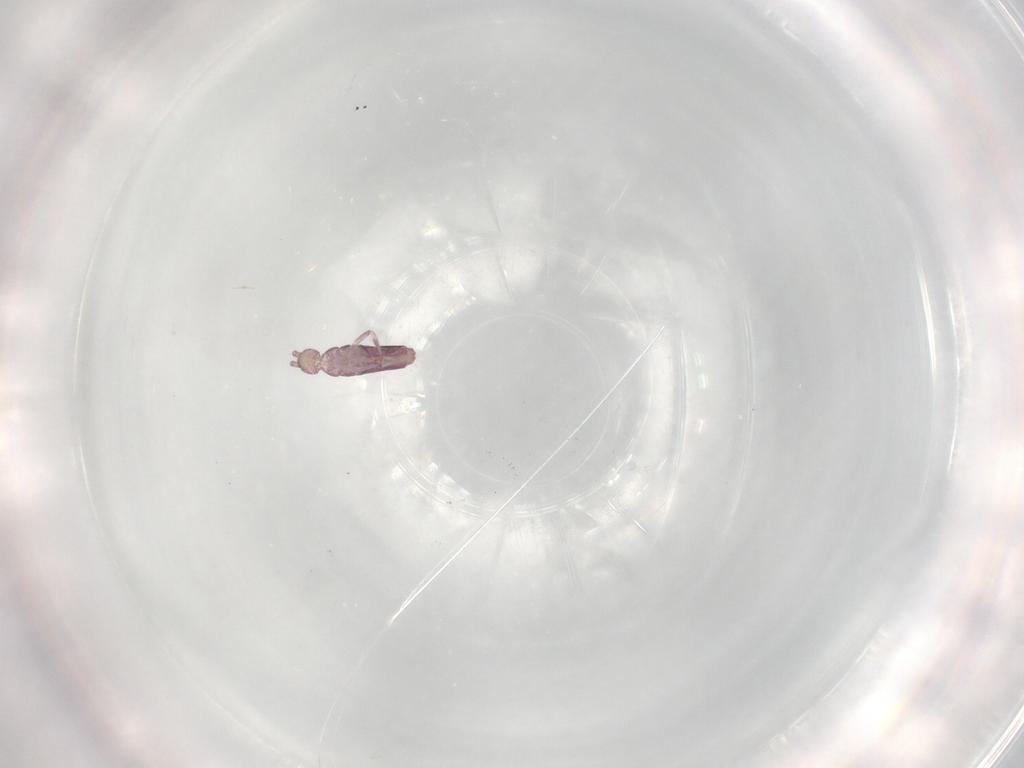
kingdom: Animalia
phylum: Arthropoda
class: Collembola
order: Entomobryomorpha
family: Entomobryidae
